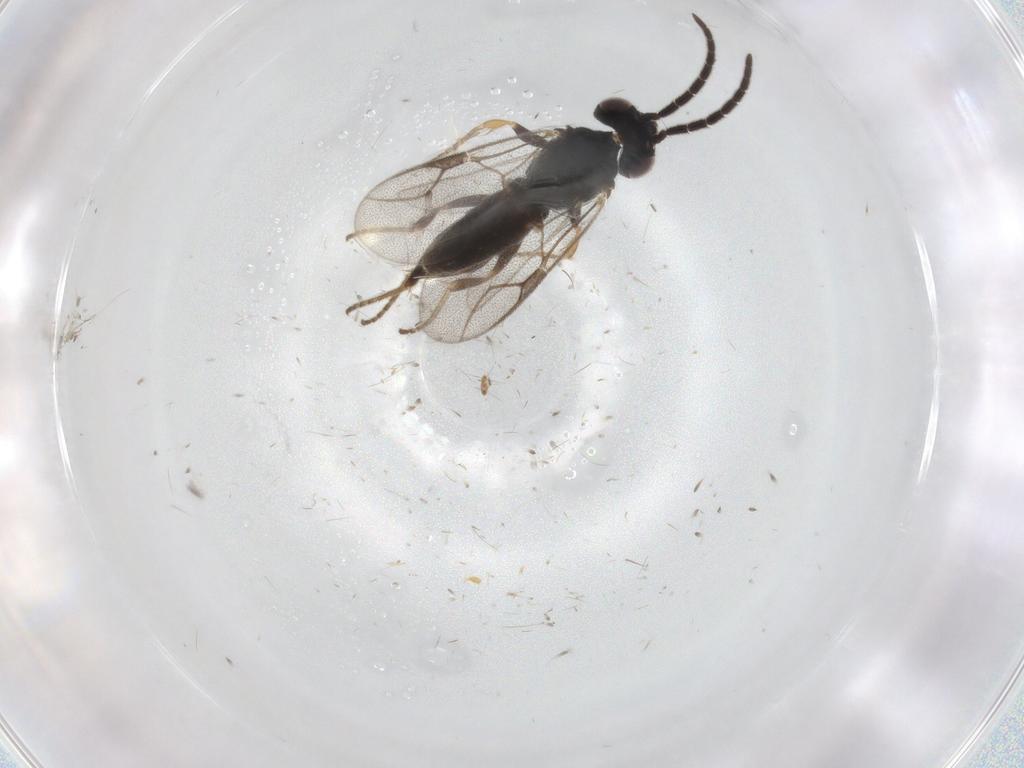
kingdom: Animalia
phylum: Arthropoda
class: Insecta
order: Hymenoptera
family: Dryinidae
